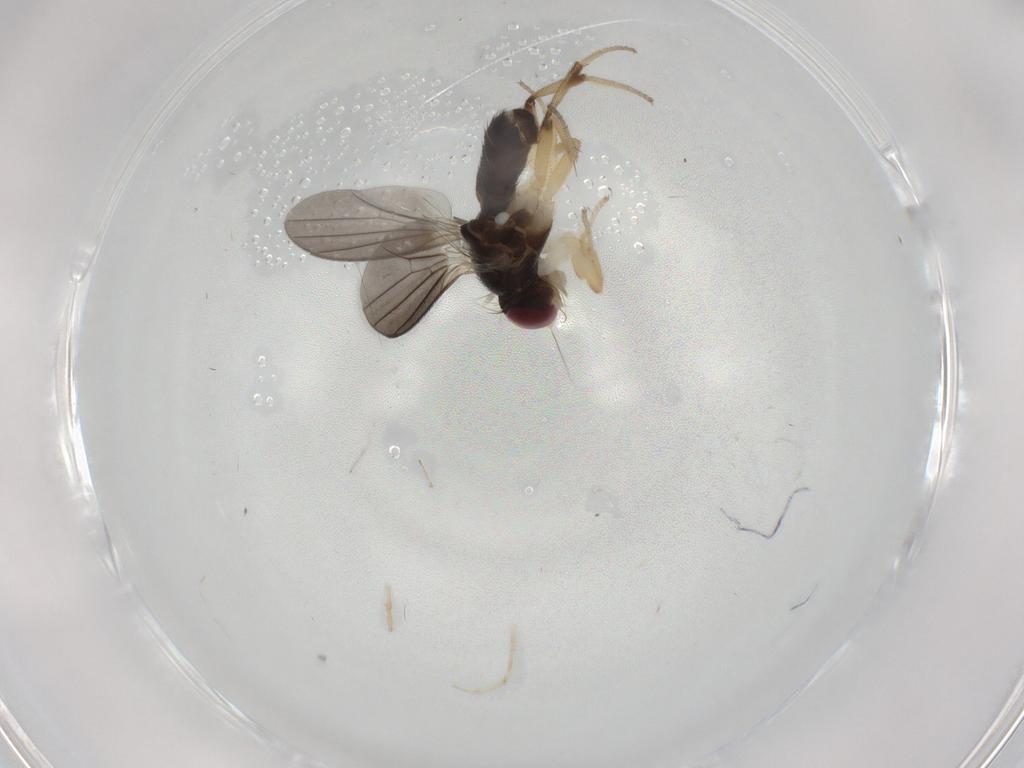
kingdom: Animalia
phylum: Arthropoda
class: Insecta
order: Diptera
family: Clusiidae
